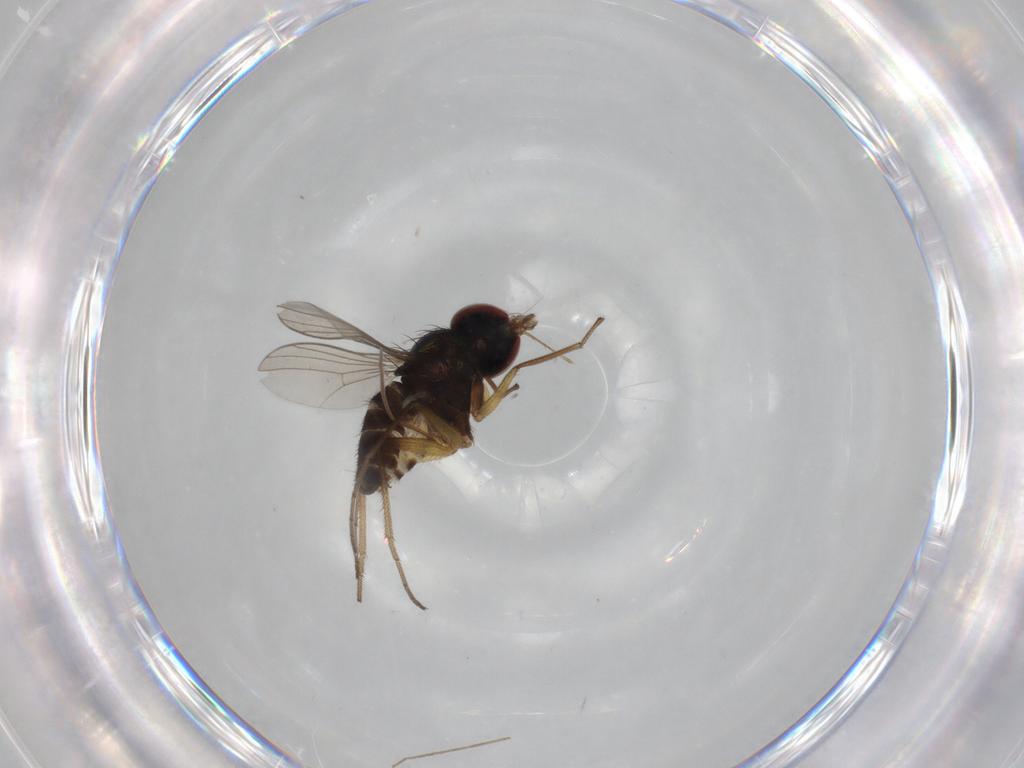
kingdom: Animalia
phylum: Arthropoda
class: Insecta
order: Diptera
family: Dolichopodidae
